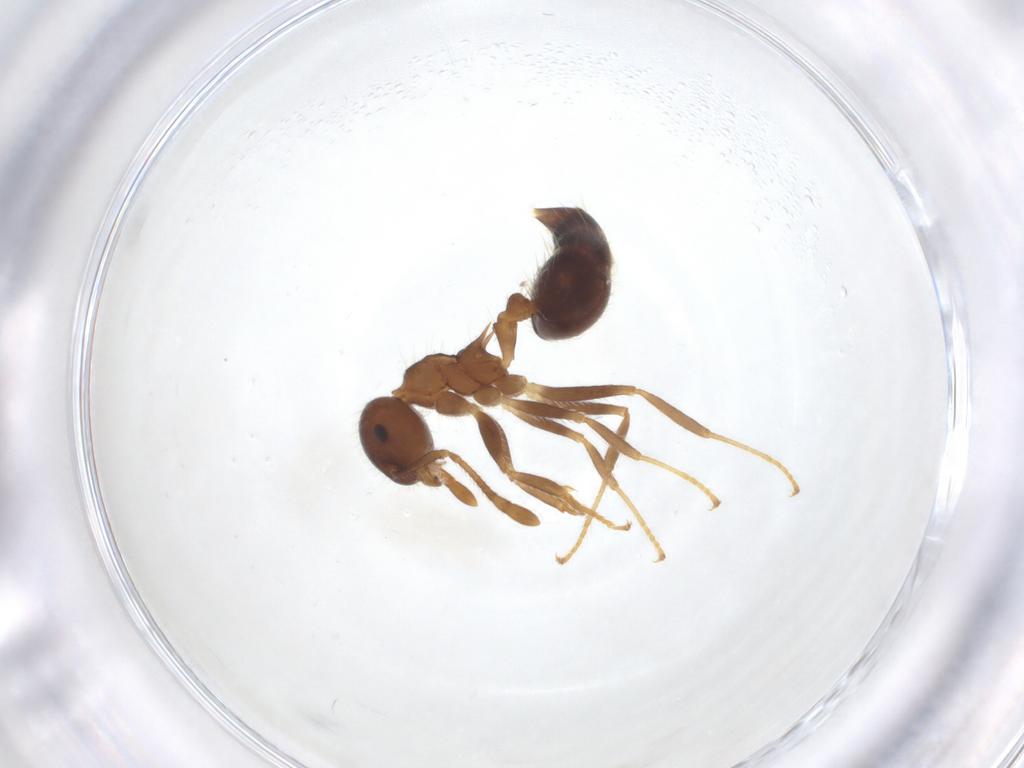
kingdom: Animalia
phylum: Arthropoda
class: Insecta
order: Hymenoptera
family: Formicidae
